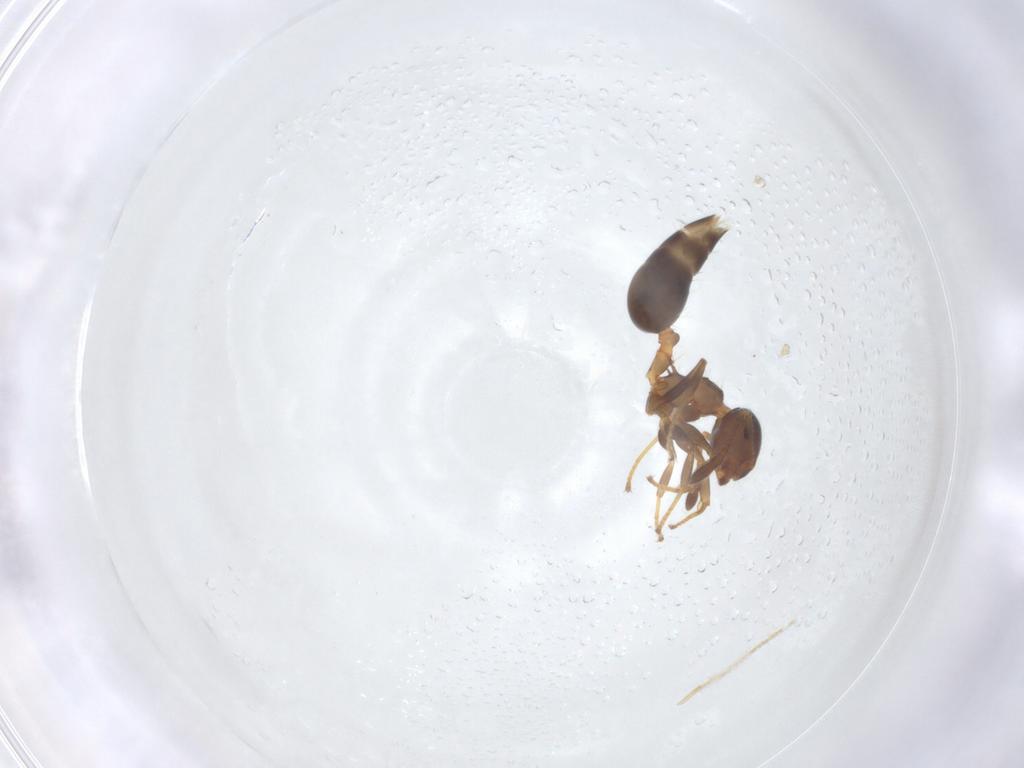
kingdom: Animalia
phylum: Arthropoda
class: Insecta
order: Hymenoptera
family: Formicidae
